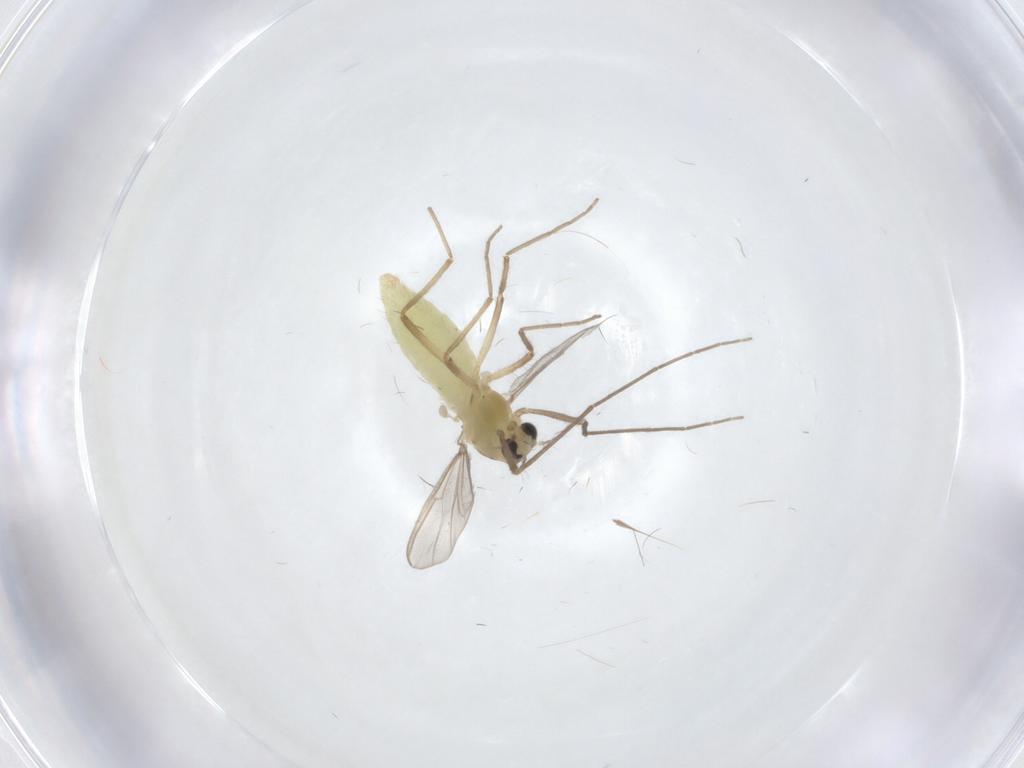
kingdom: Animalia
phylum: Arthropoda
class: Insecta
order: Diptera
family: Chironomidae
